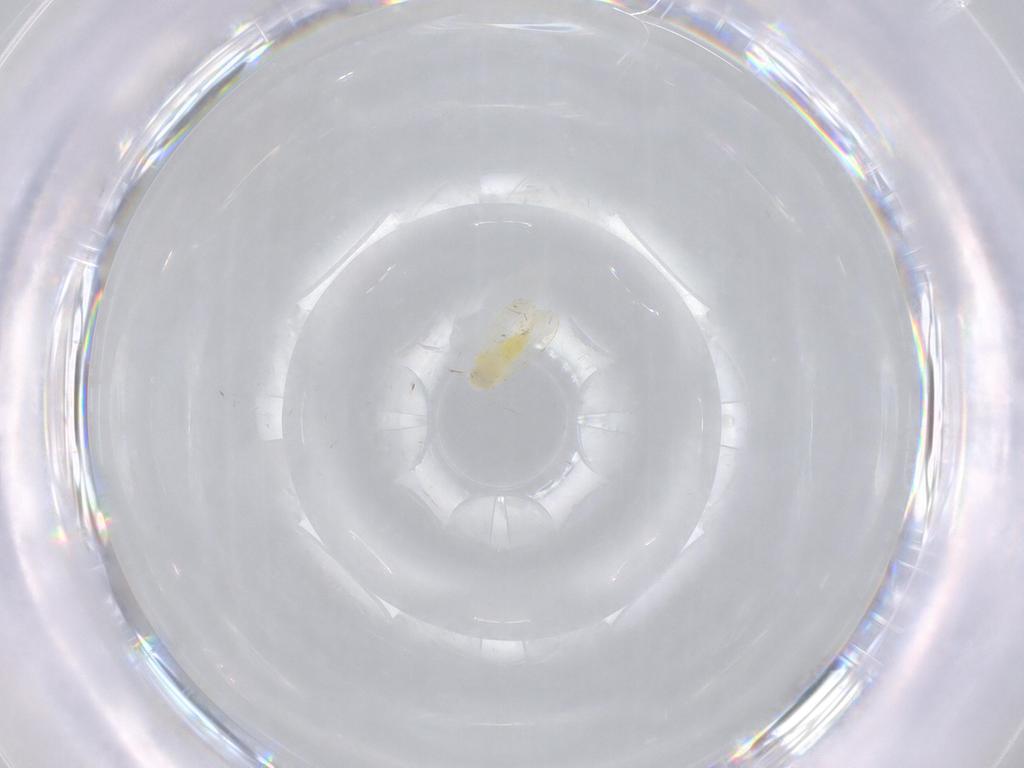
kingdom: Animalia
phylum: Arthropoda
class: Insecta
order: Hemiptera
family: Aleyrodidae
